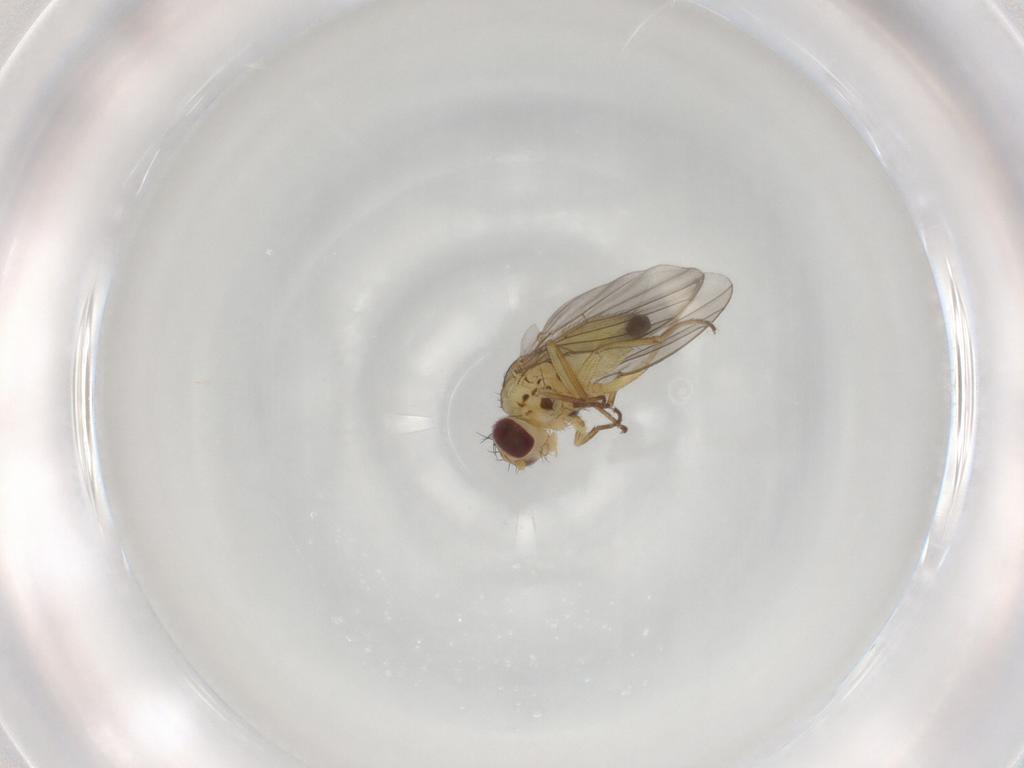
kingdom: Animalia
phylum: Arthropoda
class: Insecta
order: Diptera
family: Agromyzidae
